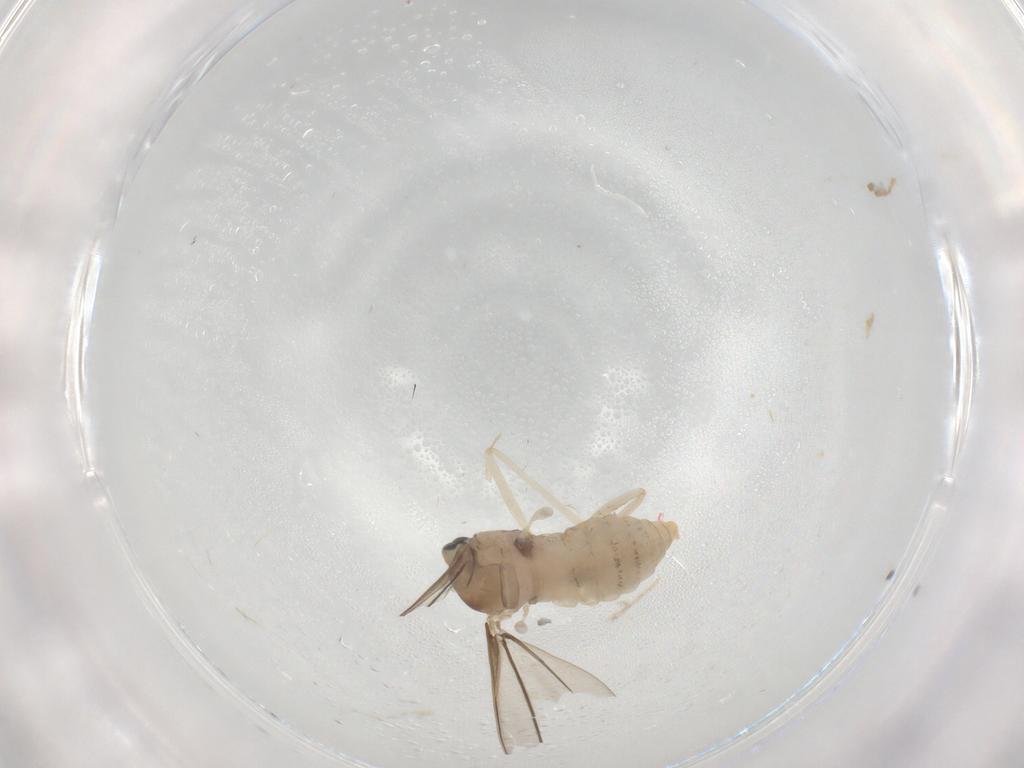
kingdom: Animalia
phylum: Arthropoda
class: Insecta
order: Diptera
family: Cecidomyiidae
